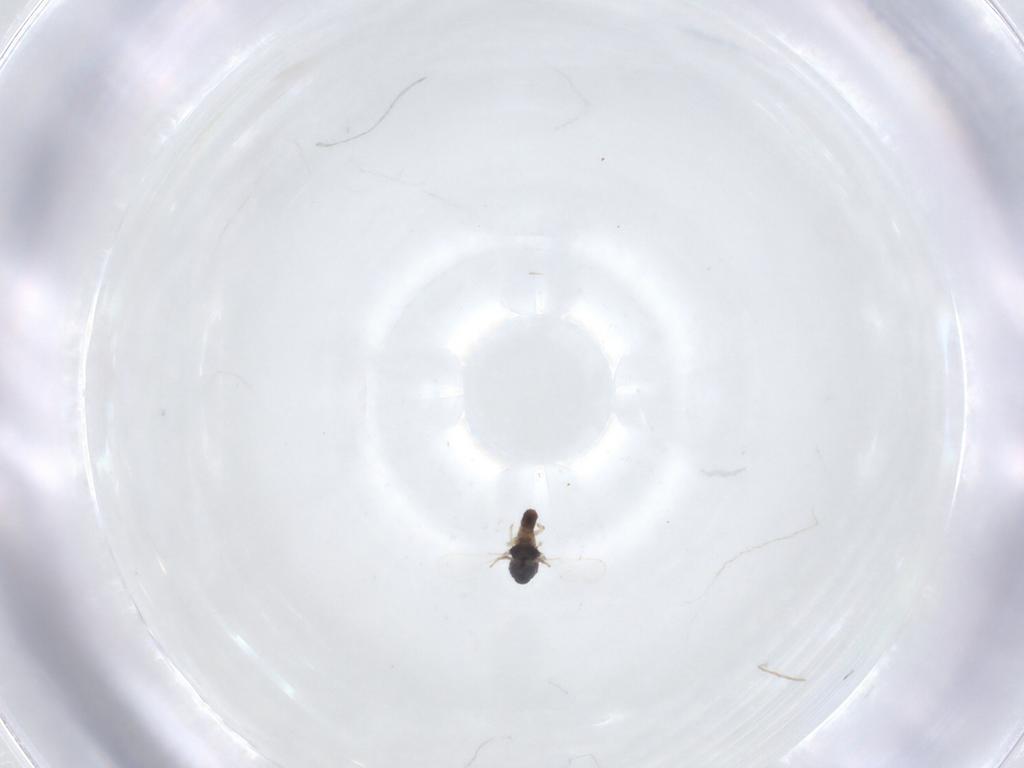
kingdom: Animalia
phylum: Arthropoda
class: Insecta
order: Diptera
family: Chironomidae
